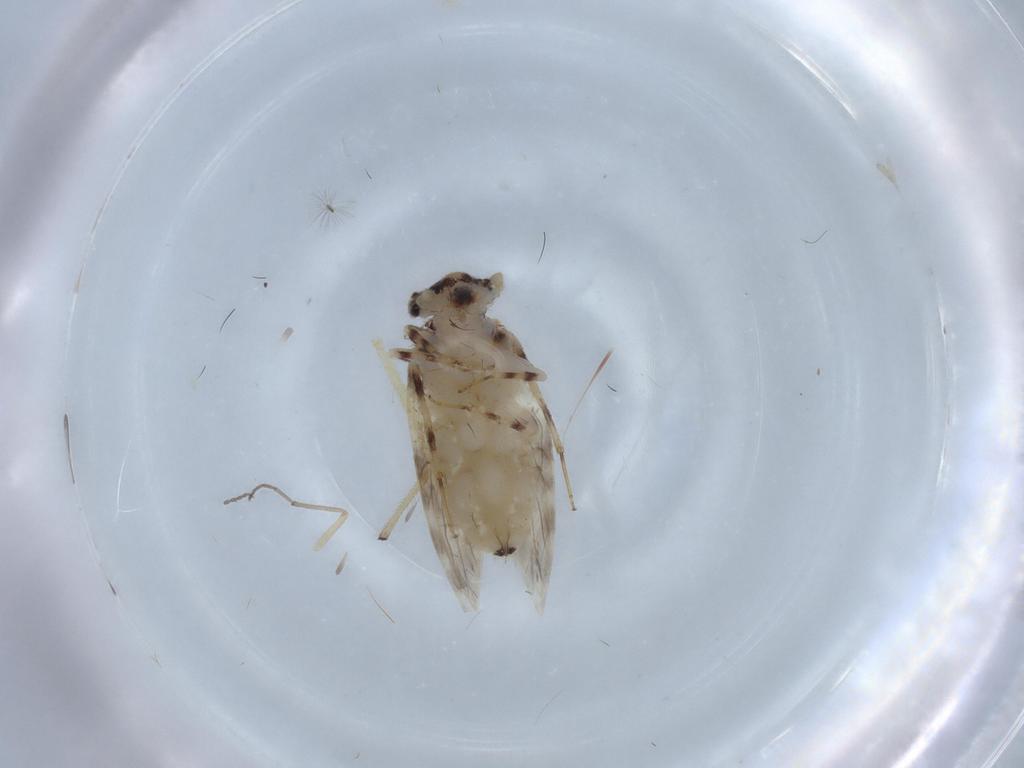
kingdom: Animalia
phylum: Arthropoda
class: Insecta
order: Psocodea
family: Lepidopsocidae
